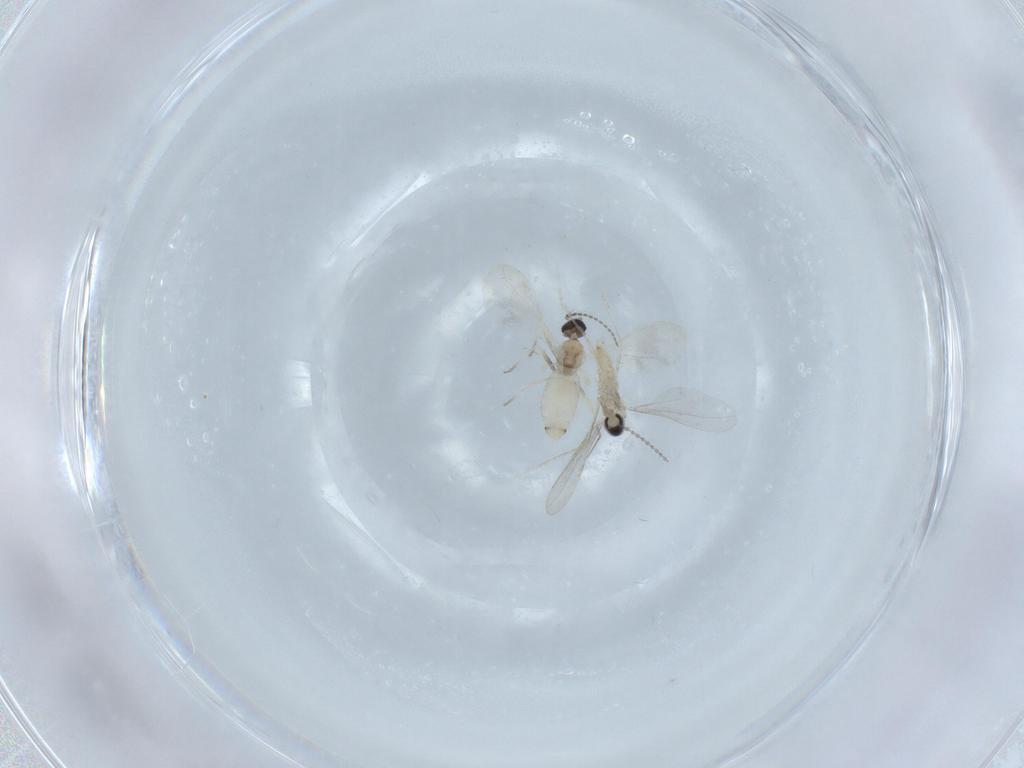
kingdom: Animalia
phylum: Arthropoda
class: Insecta
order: Diptera
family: Cecidomyiidae
